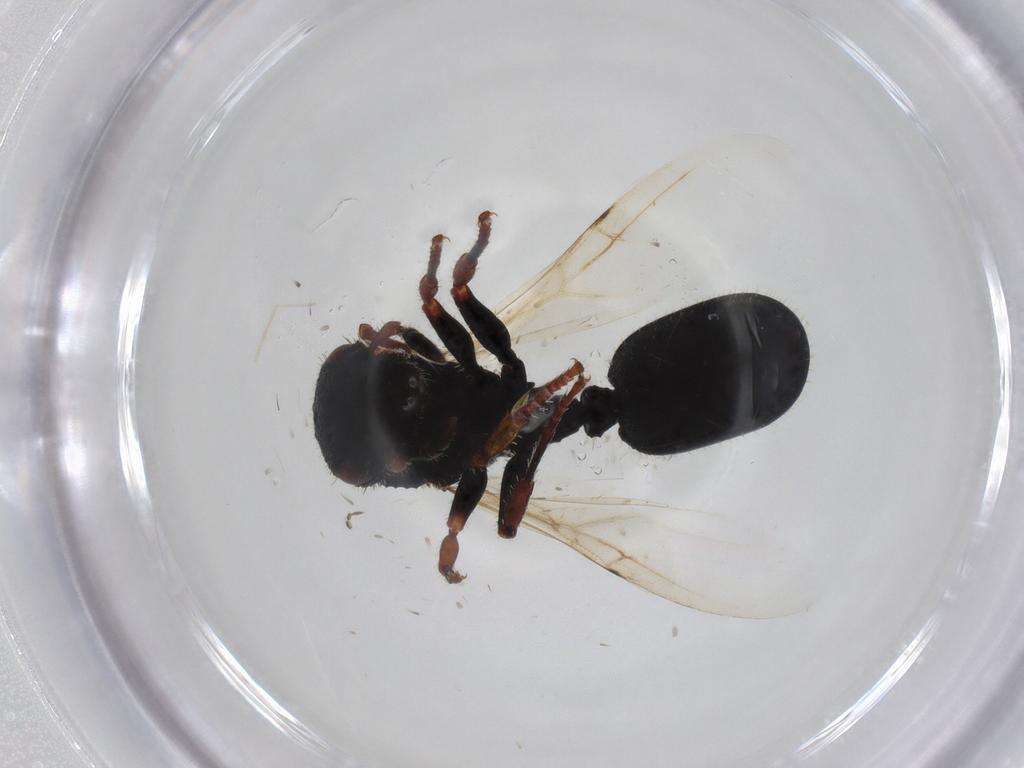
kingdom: Animalia
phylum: Arthropoda
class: Insecta
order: Hymenoptera
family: Formicidae
